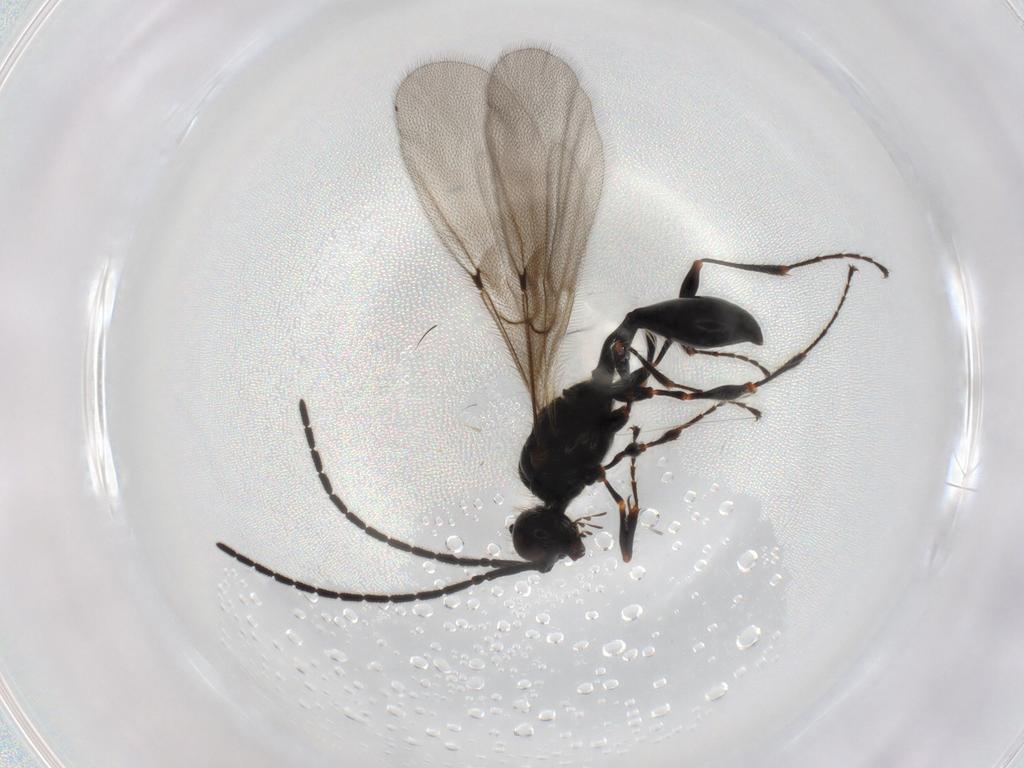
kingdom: Animalia
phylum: Arthropoda
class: Insecta
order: Hymenoptera
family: Diapriidae
